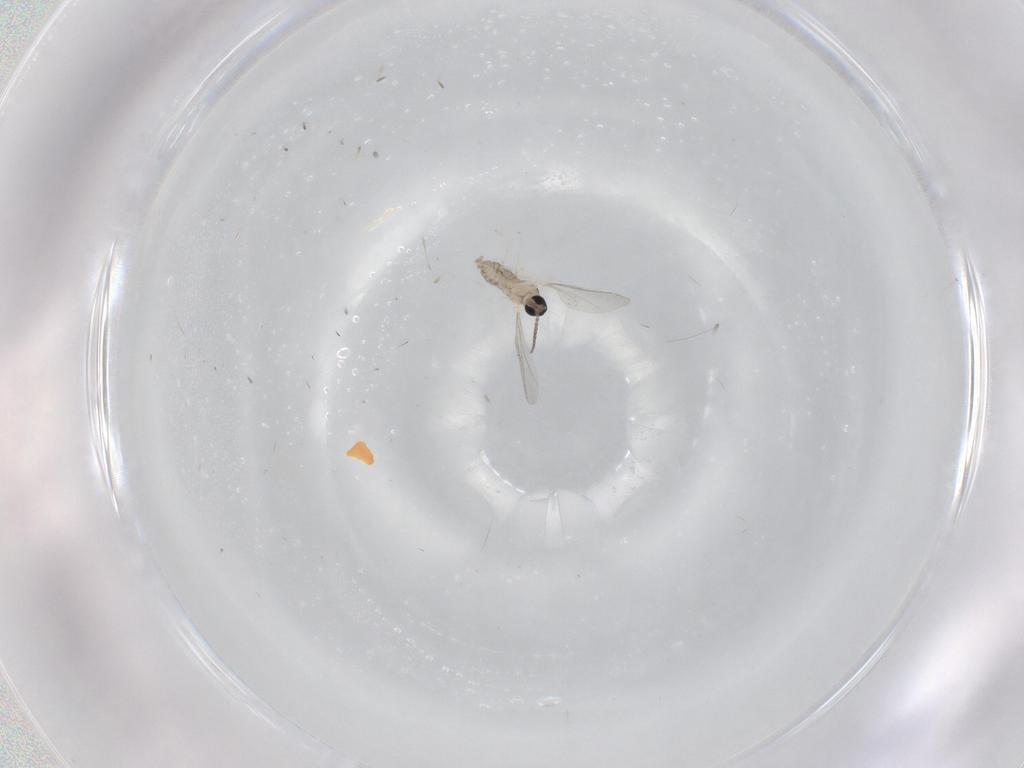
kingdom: Animalia
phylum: Arthropoda
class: Insecta
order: Diptera
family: Cecidomyiidae
